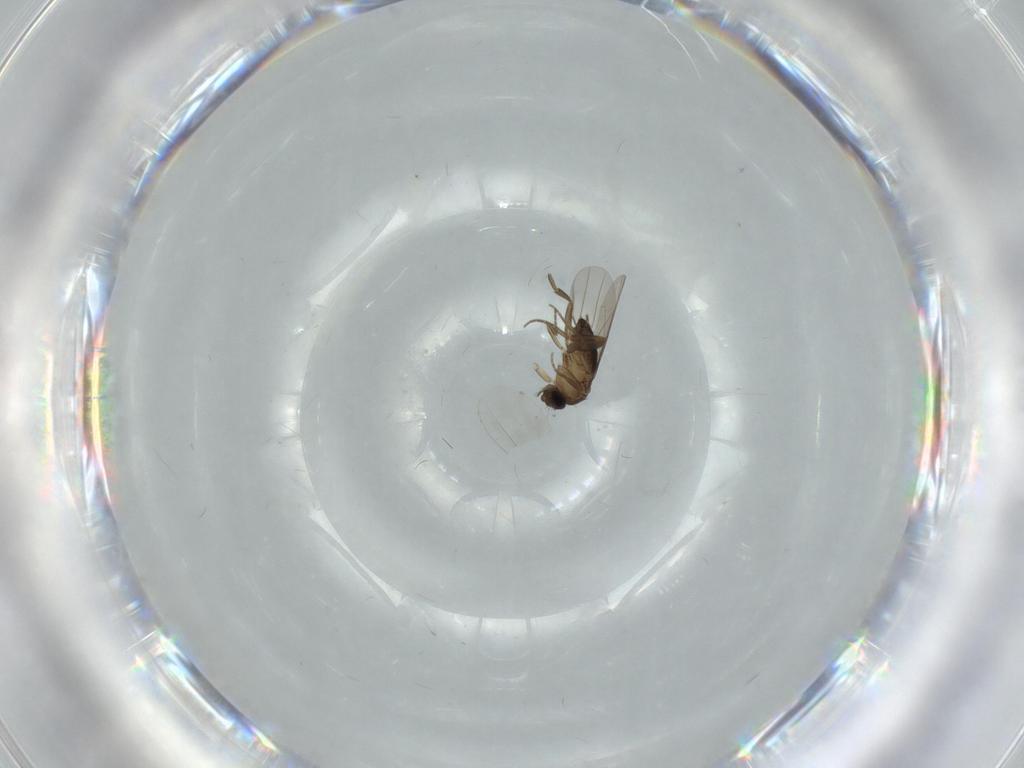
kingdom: Animalia
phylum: Arthropoda
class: Insecta
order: Diptera
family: Phoridae
